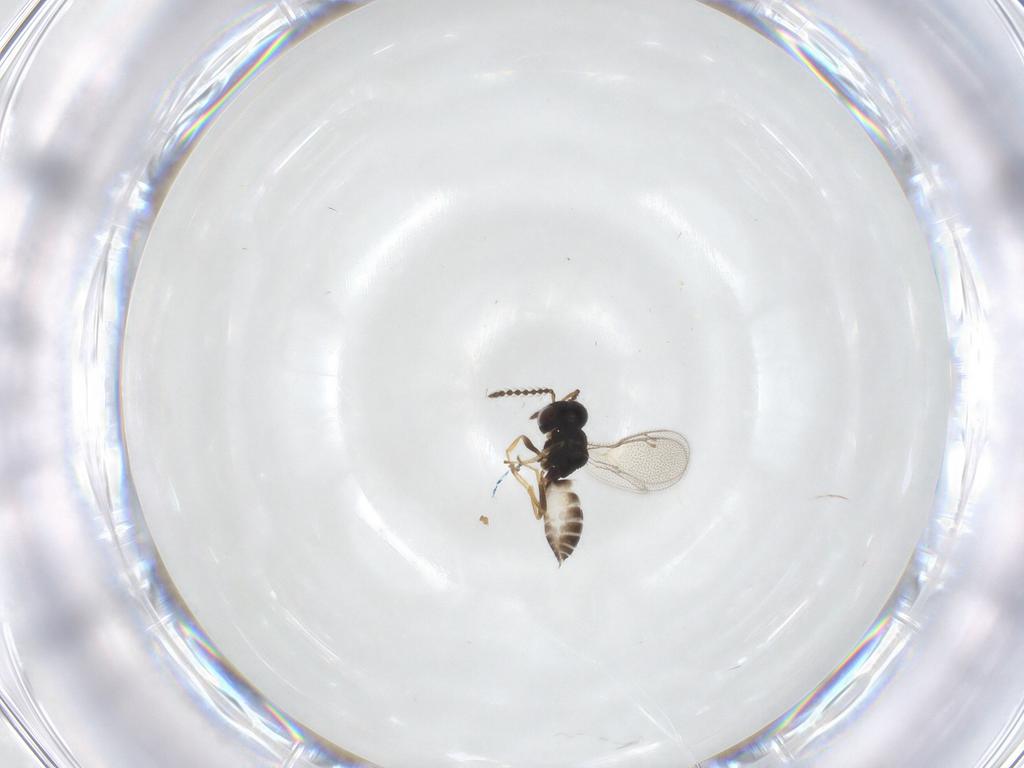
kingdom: Animalia
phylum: Arthropoda
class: Insecta
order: Hymenoptera
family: Pteromalidae
